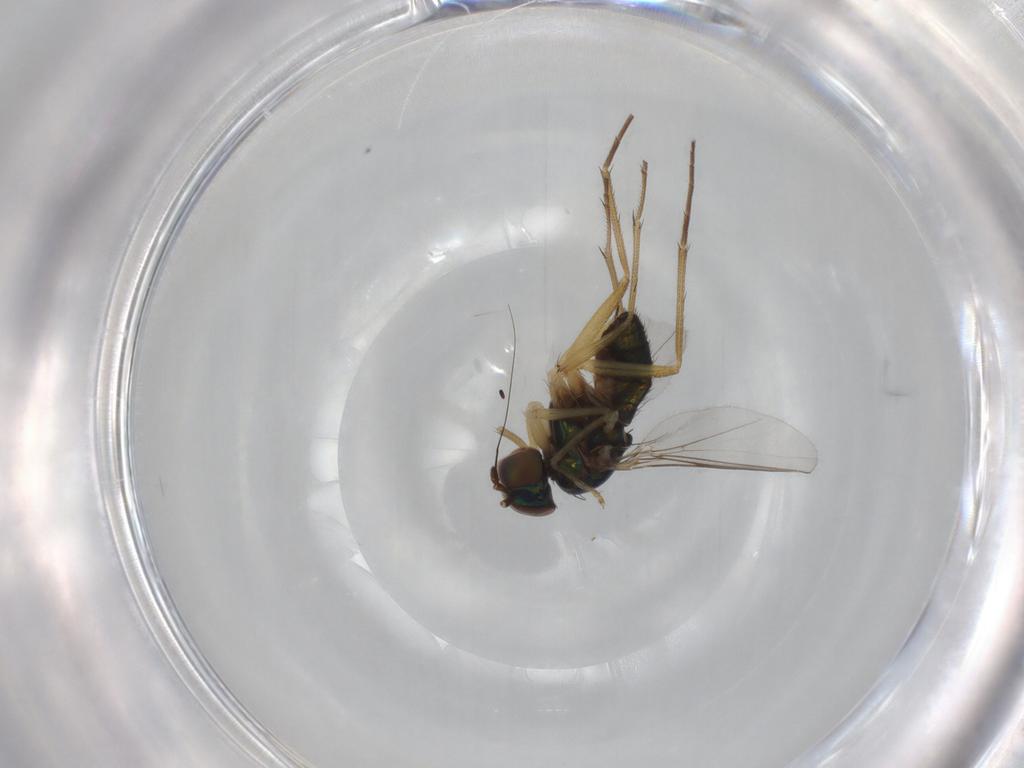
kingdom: Animalia
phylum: Arthropoda
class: Insecta
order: Diptera
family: Dolichopodidae
